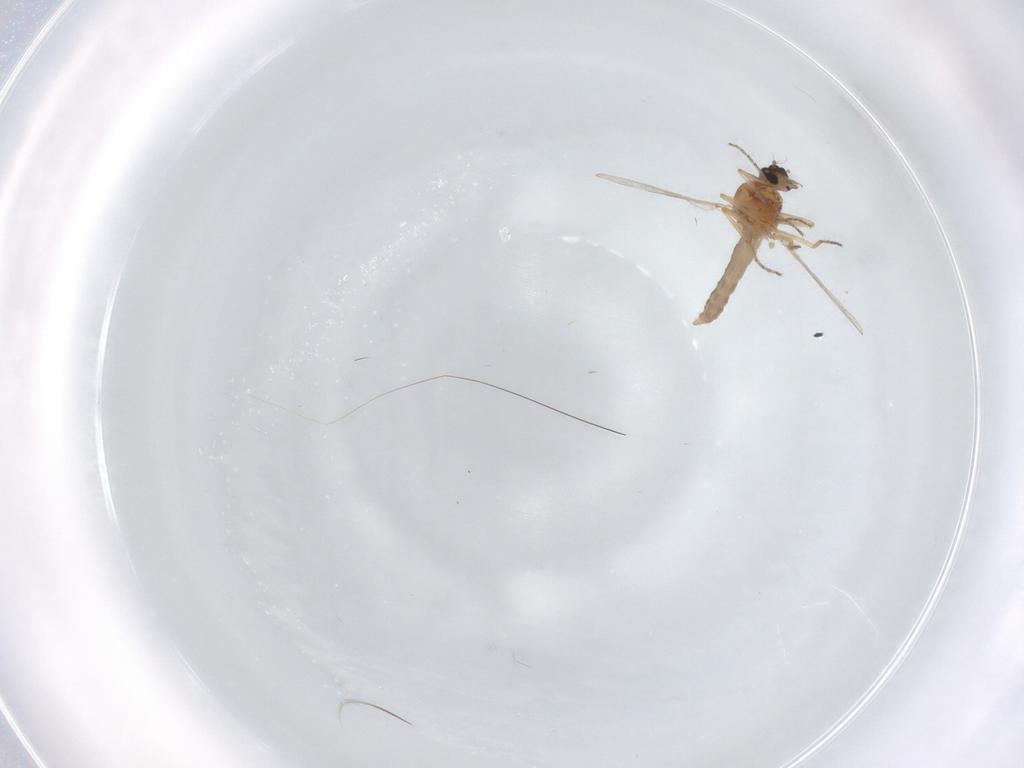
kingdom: Animalia
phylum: Arthropoda
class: Insecta
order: Diptera
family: Ceratopogonidae
